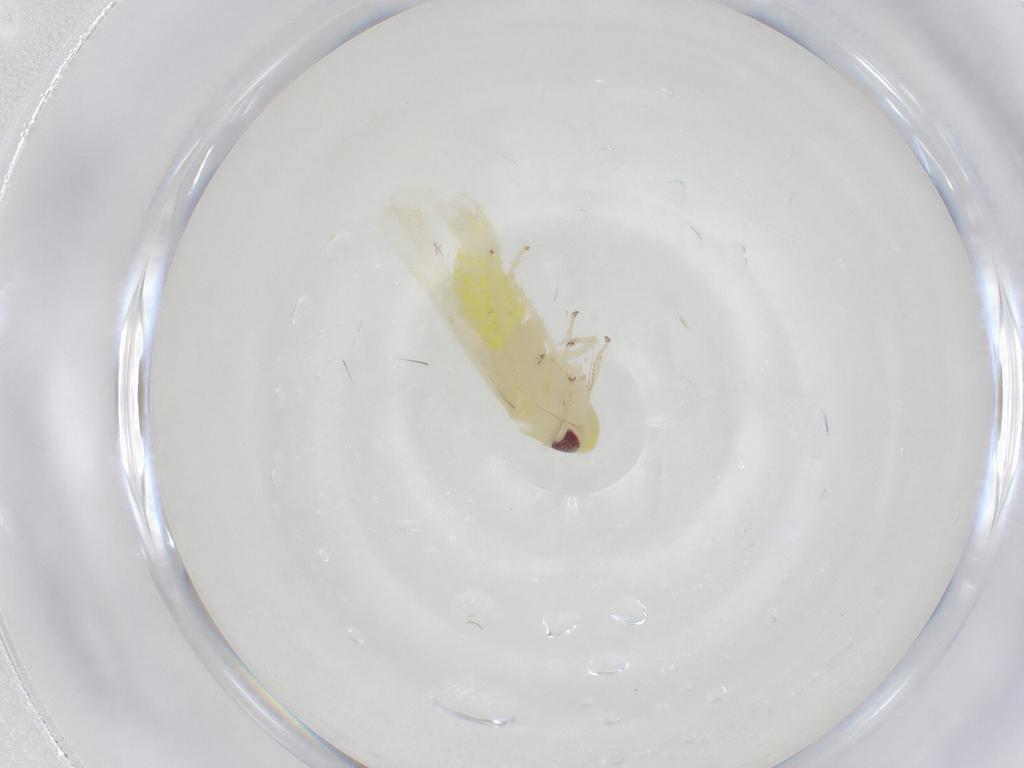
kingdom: Animalia
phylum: Arthropoda
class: Insecta
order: Hemiptera
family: Cicadellidae
